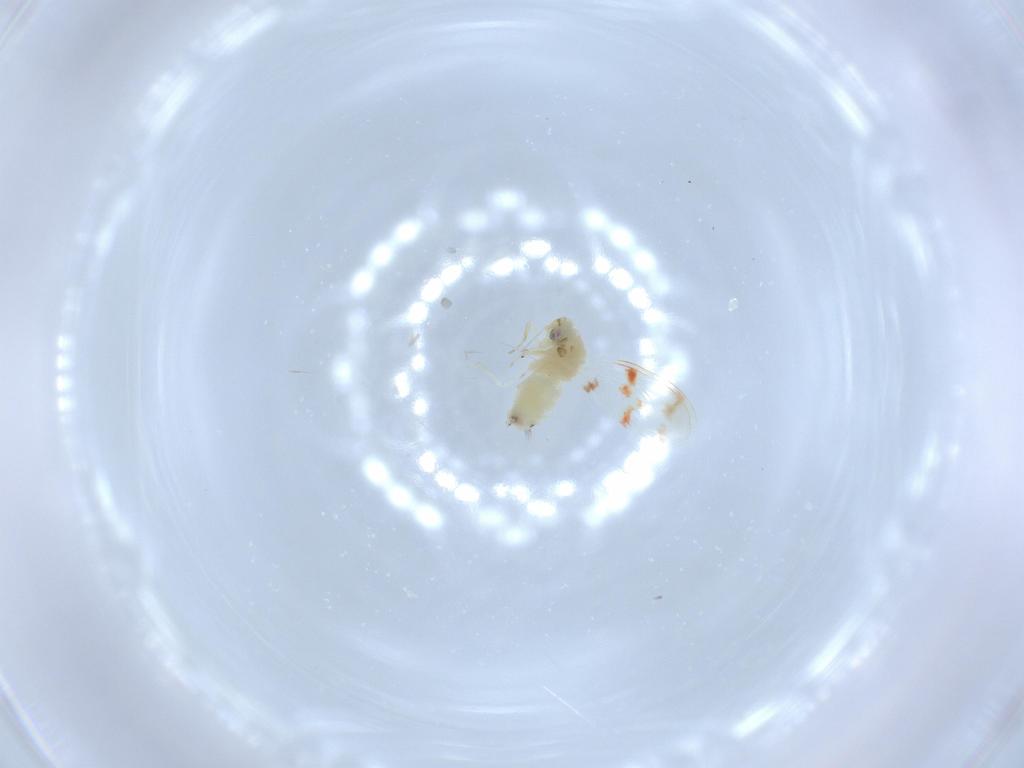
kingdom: Animalia
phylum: Arthropoda
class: Insecta
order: Hemiptera
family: Aleyrodidae
